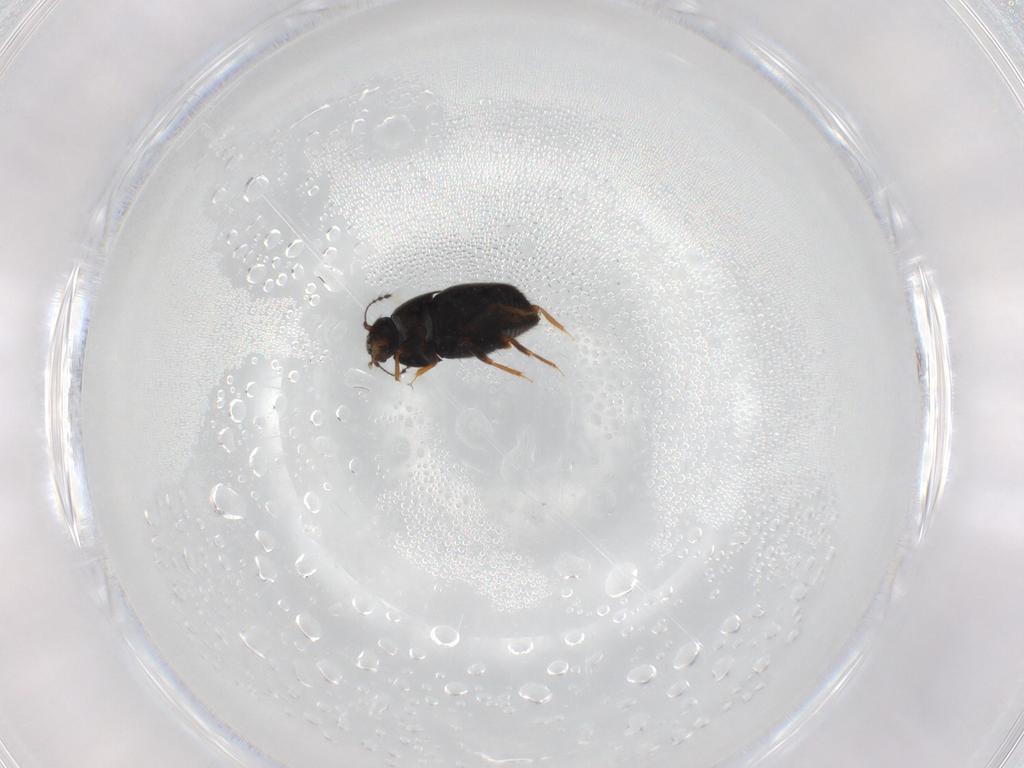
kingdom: Animalia
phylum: Arthropoda
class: Insecta
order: Coleoptera
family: Ptiliidae
